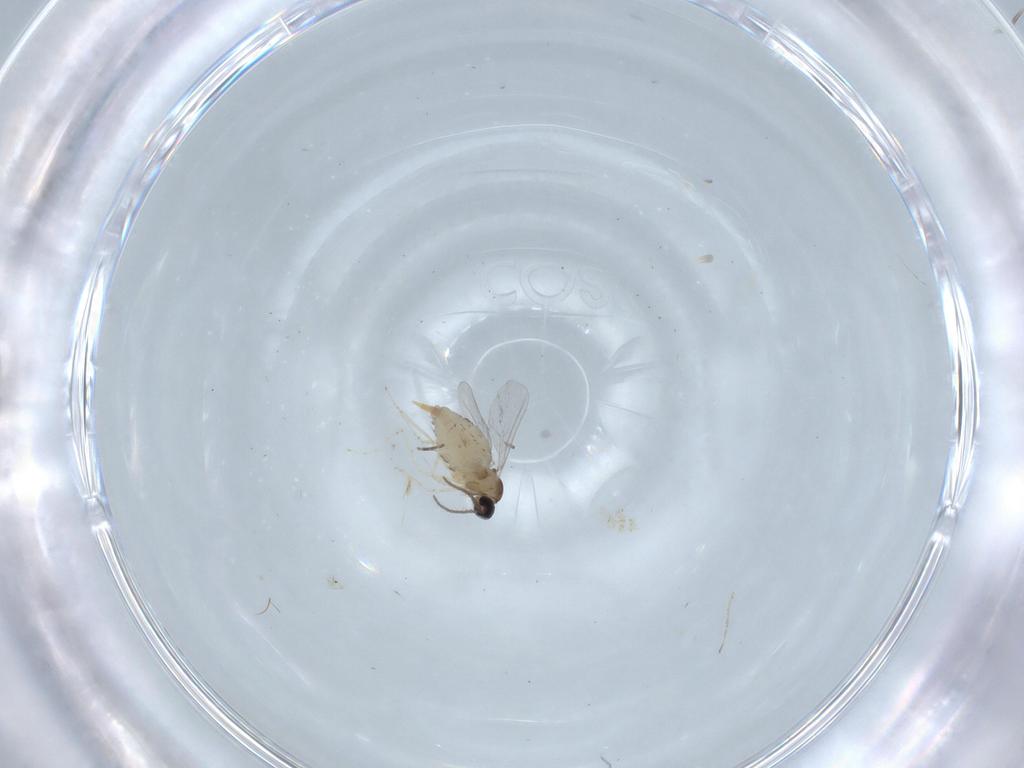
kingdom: Animalia
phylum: Arthropoda
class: Insecta
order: Diptera
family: Cecidomyiidae
